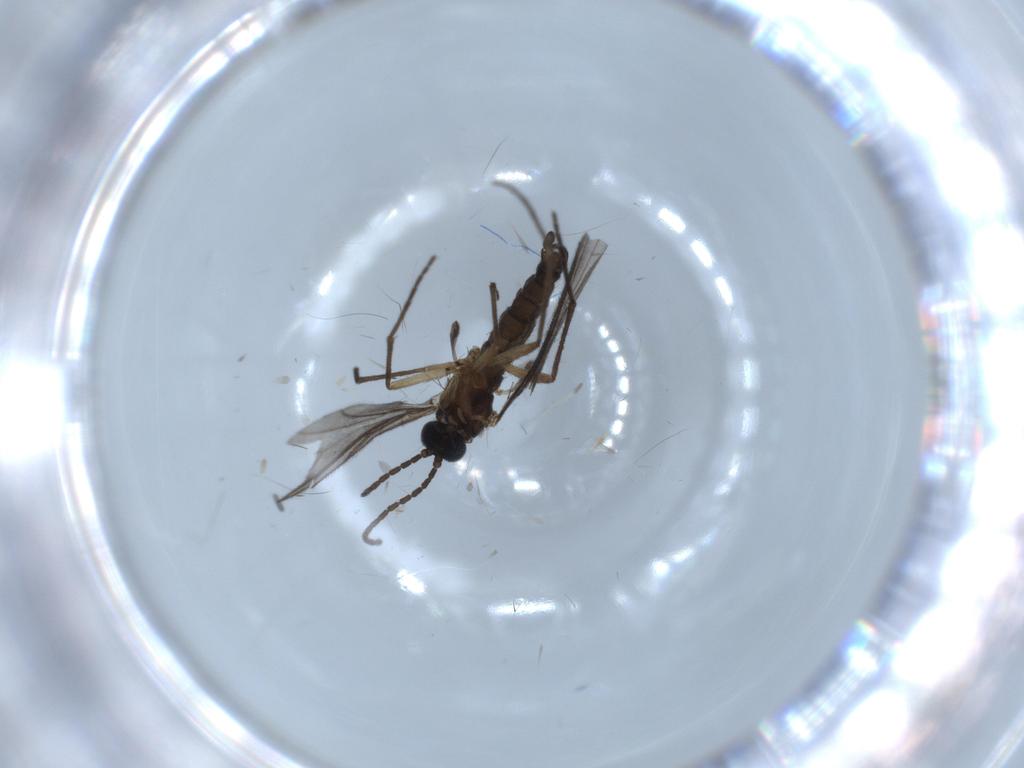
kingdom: Animalia
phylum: Arthropoda
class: Insecta
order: Diptera
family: Sciaridae
